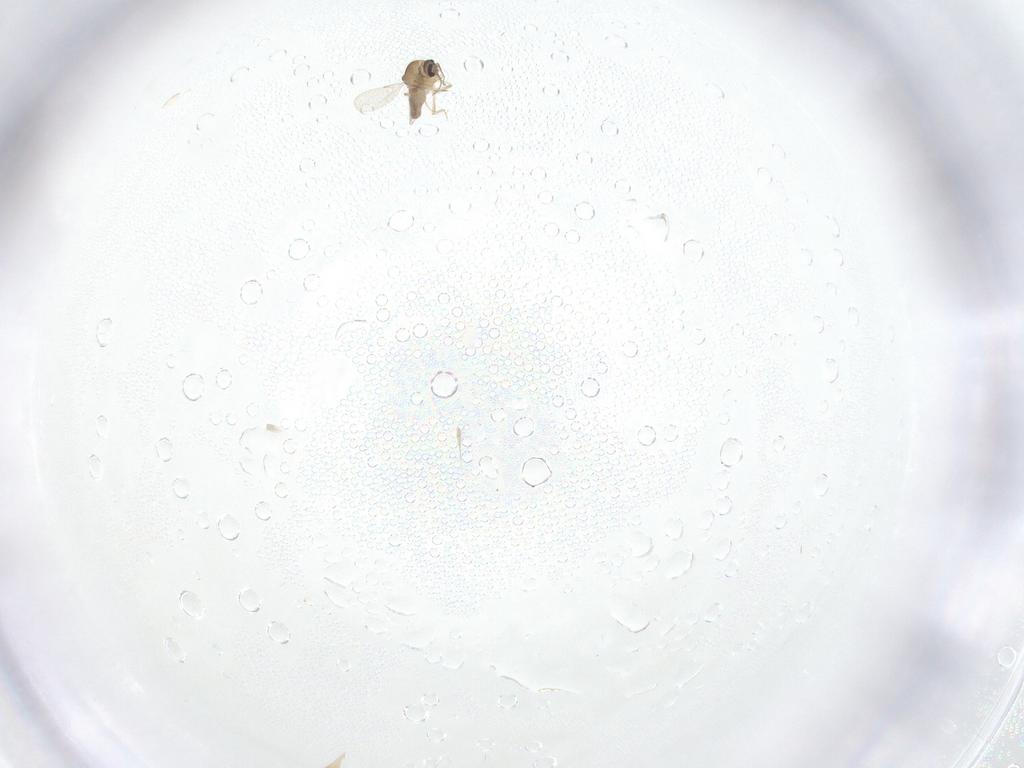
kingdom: Animalia
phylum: Arthropoda
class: Insecta
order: Diptera
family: Ceratopogonidae
